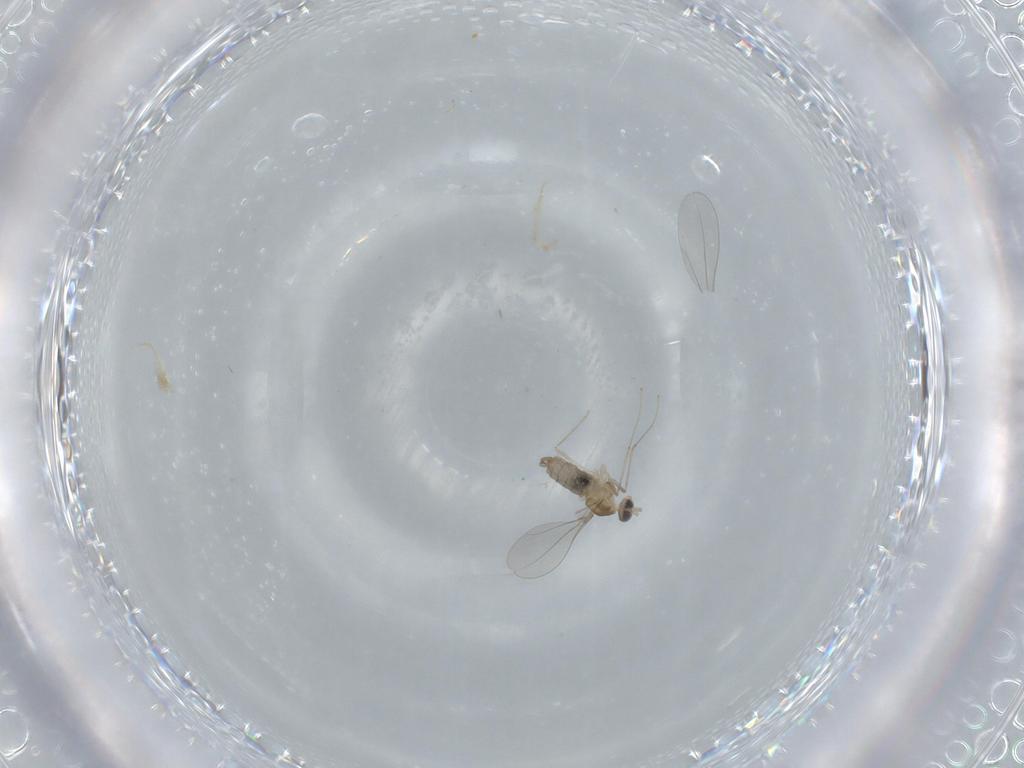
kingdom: Animalia
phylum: Arthropoda
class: Insecta
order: Diptera
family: Cecidomyiidae
